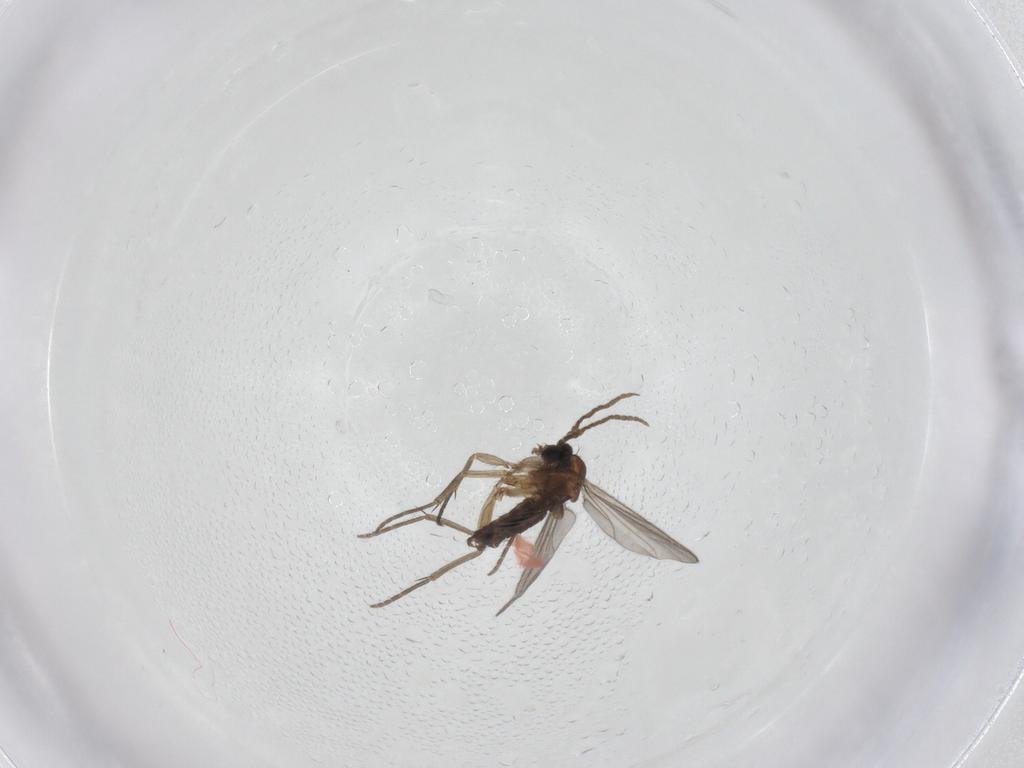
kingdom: Animalia
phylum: Arthropoda
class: Insecta
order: Diptera
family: Sciaridae
